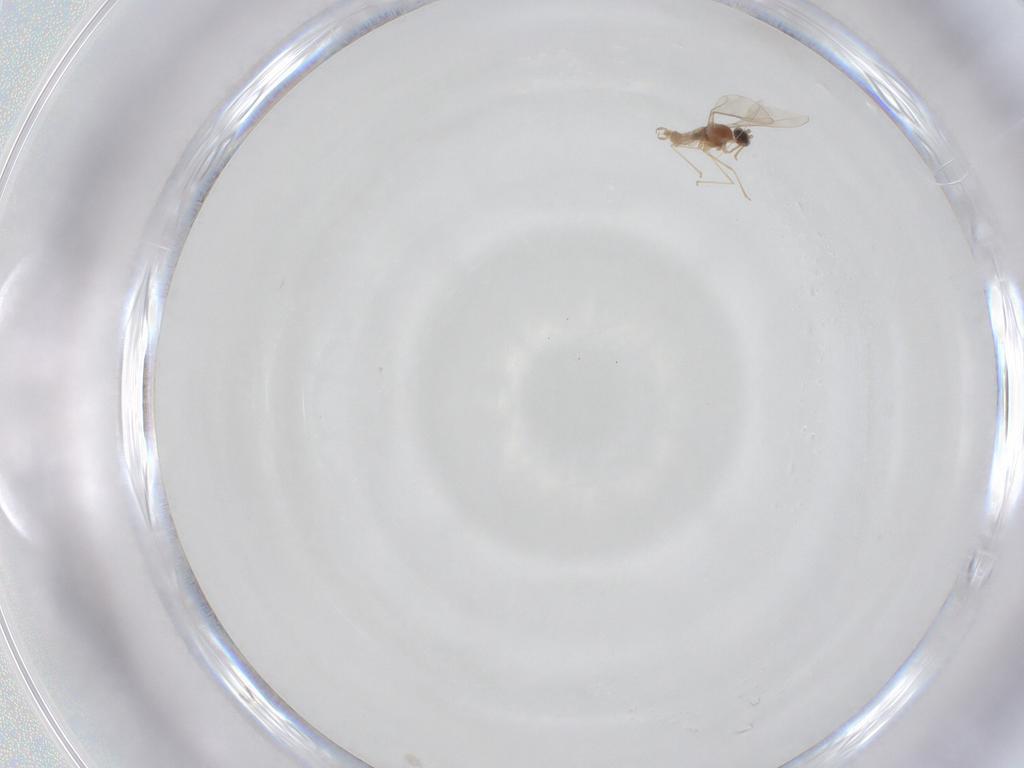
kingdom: Animalia
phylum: Arthropoda
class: Insecta
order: Diptera
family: Cecidomyiidae
